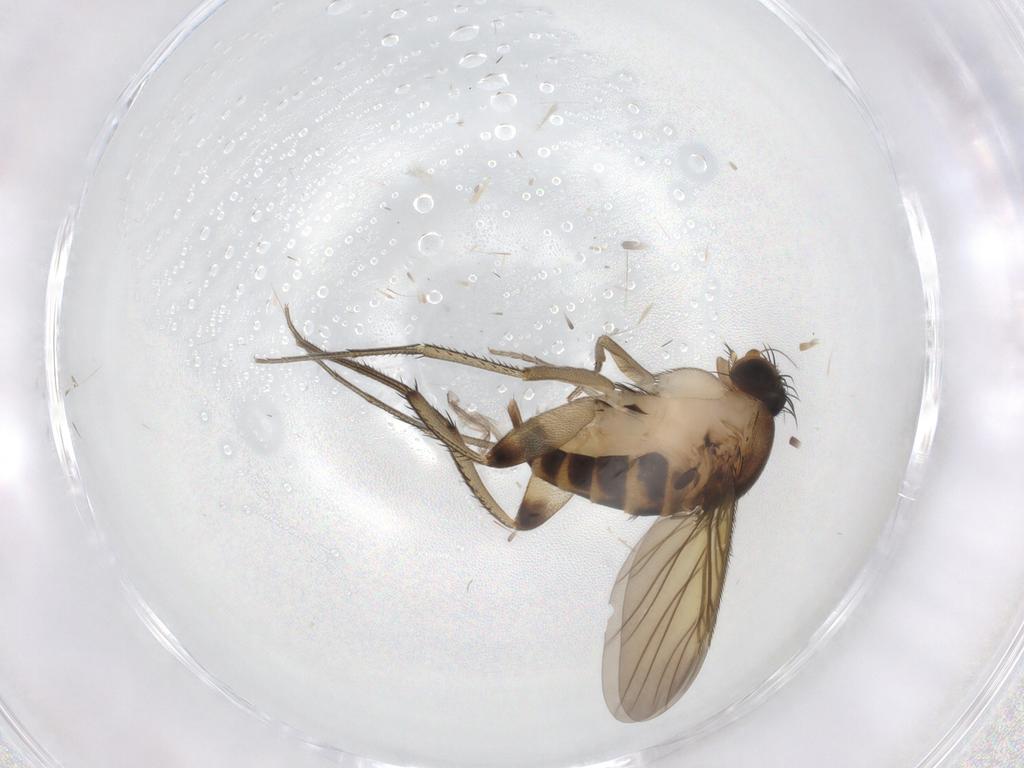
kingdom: Animalia
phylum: Arthropoda
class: Insecta
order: Diptera
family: Phoridae
